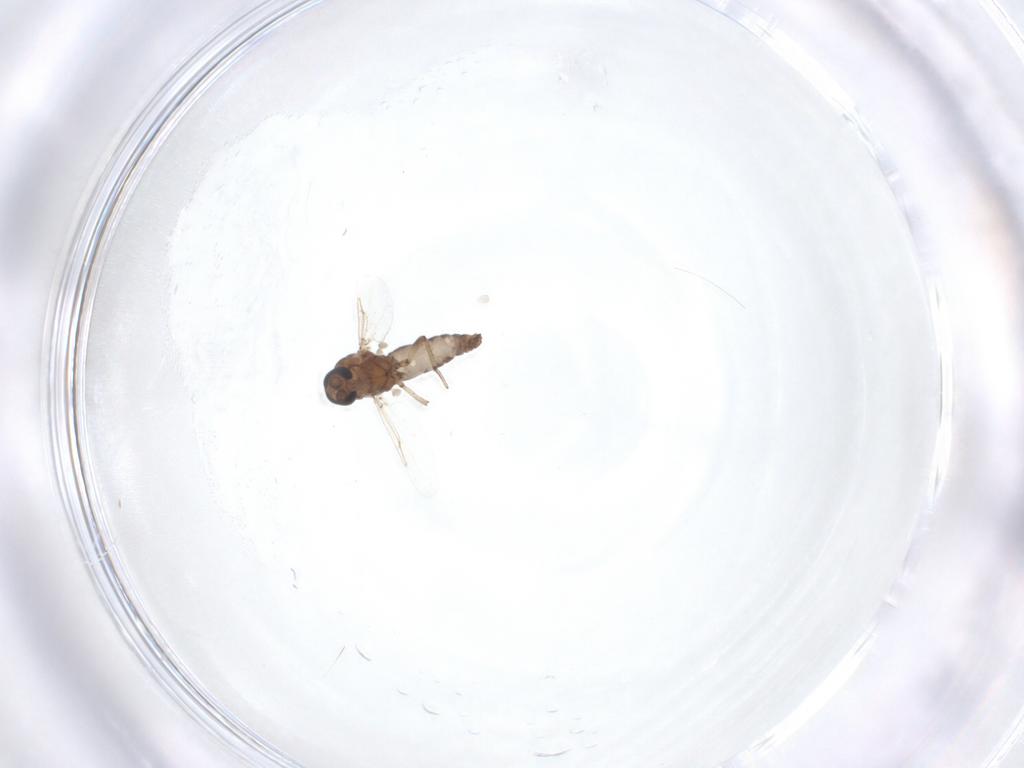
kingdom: Animalia
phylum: Arthropoda
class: Insecta
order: Diptera
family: Ceratopogonidae
